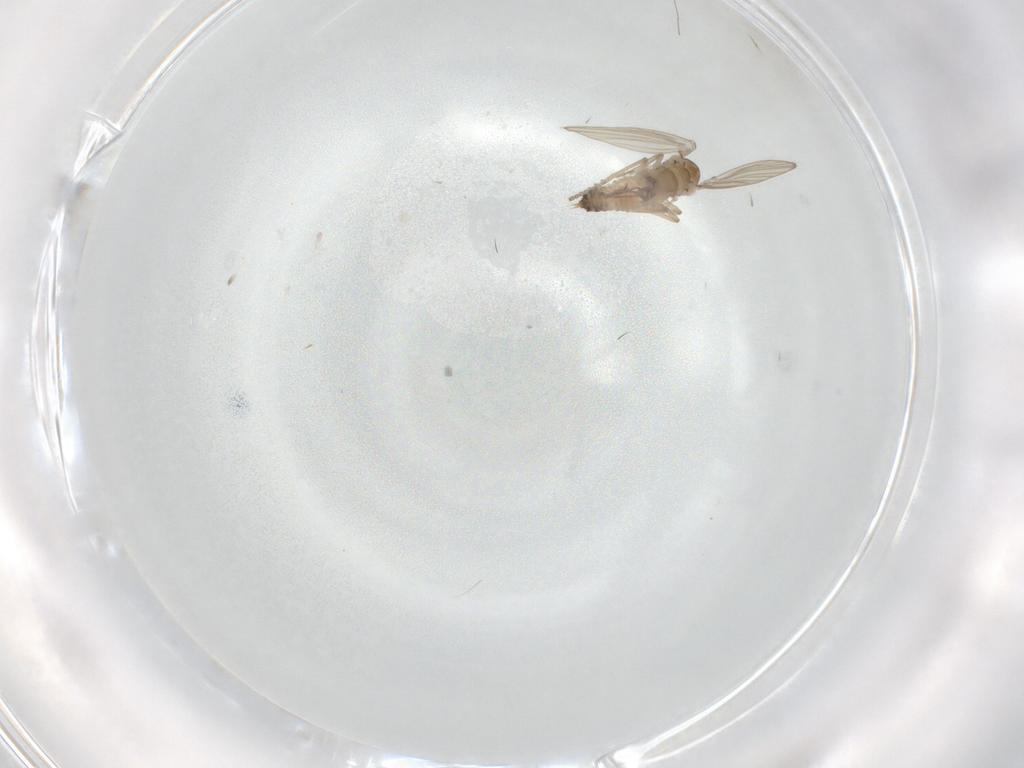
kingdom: Animalia
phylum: Arthropoda
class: Insecta
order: Diptera
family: Psychodidae
